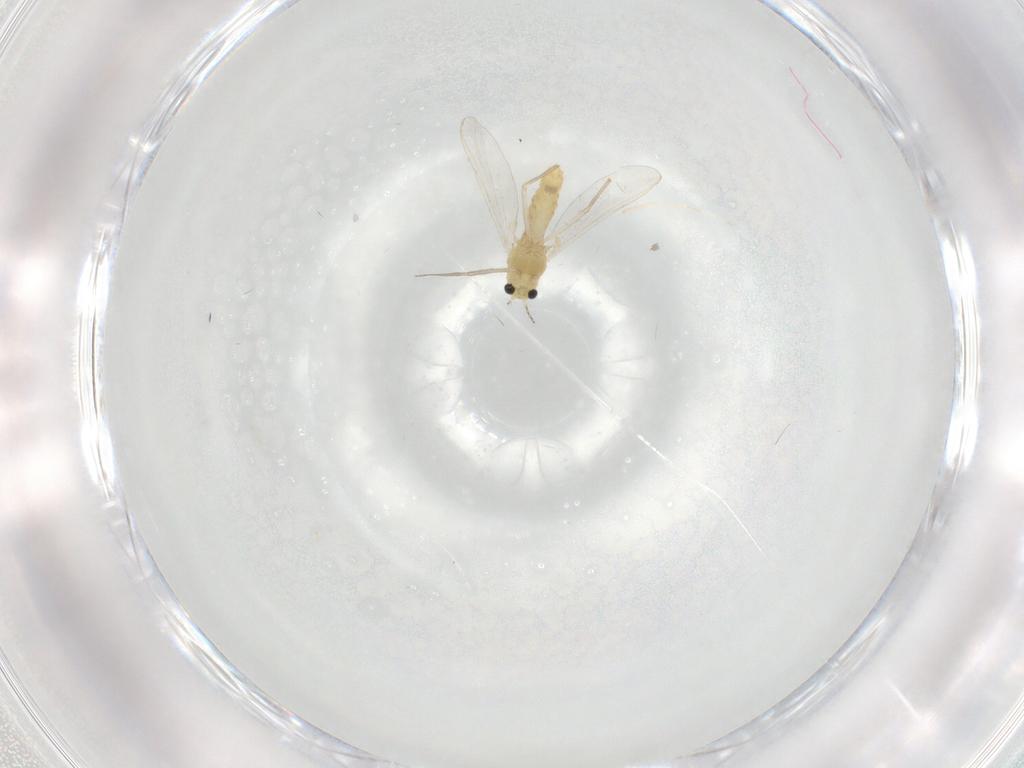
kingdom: Animalia
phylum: Arthropoda
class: Insecta
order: Diptera
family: Chironomidae
